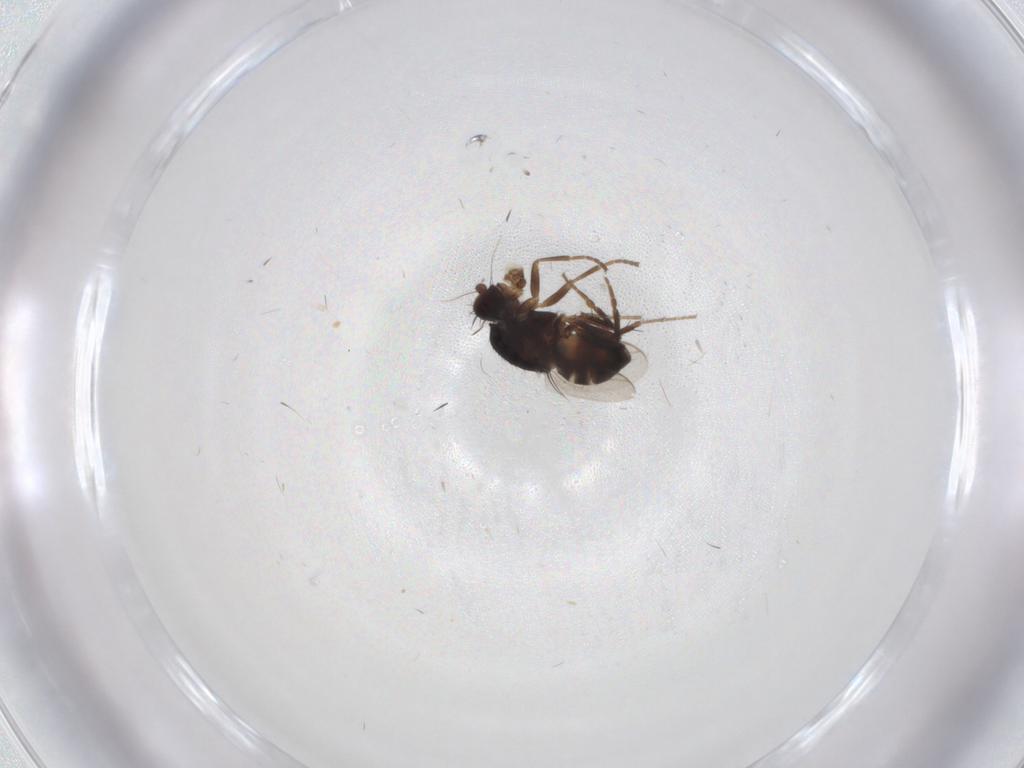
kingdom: Animalia
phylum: Arthropoda
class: Insecta
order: Diptera
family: Sphaeroceridae
